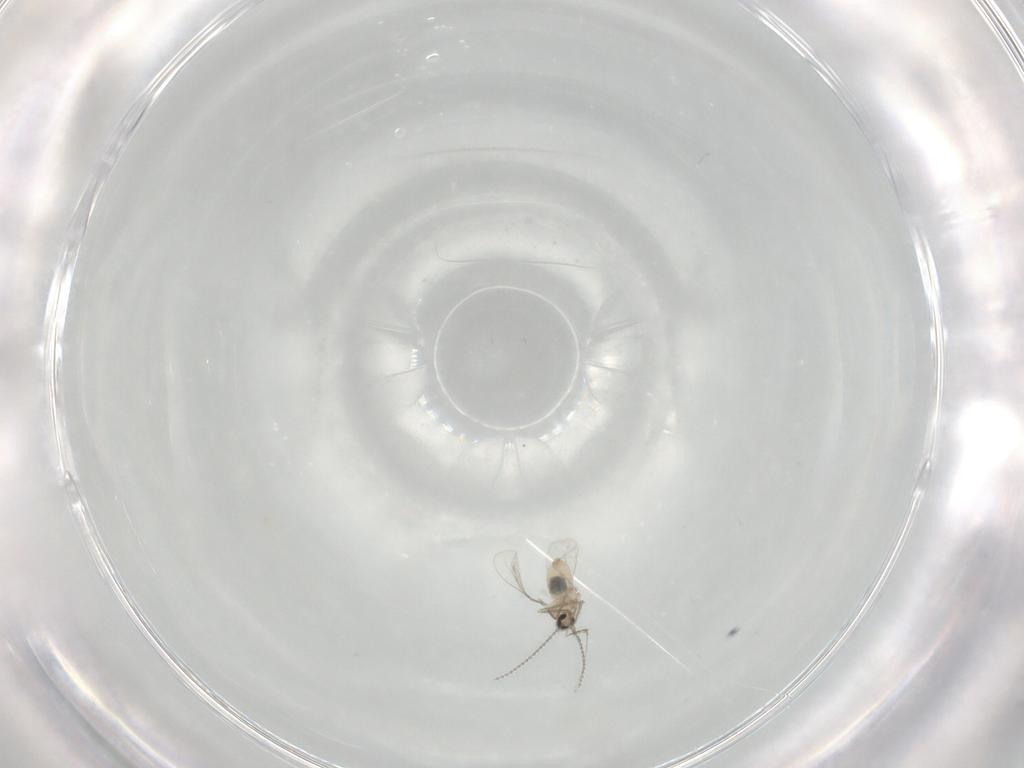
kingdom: Animalia
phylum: Arthropoda
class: Insecta
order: Diptera
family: Cecidomyiidae
